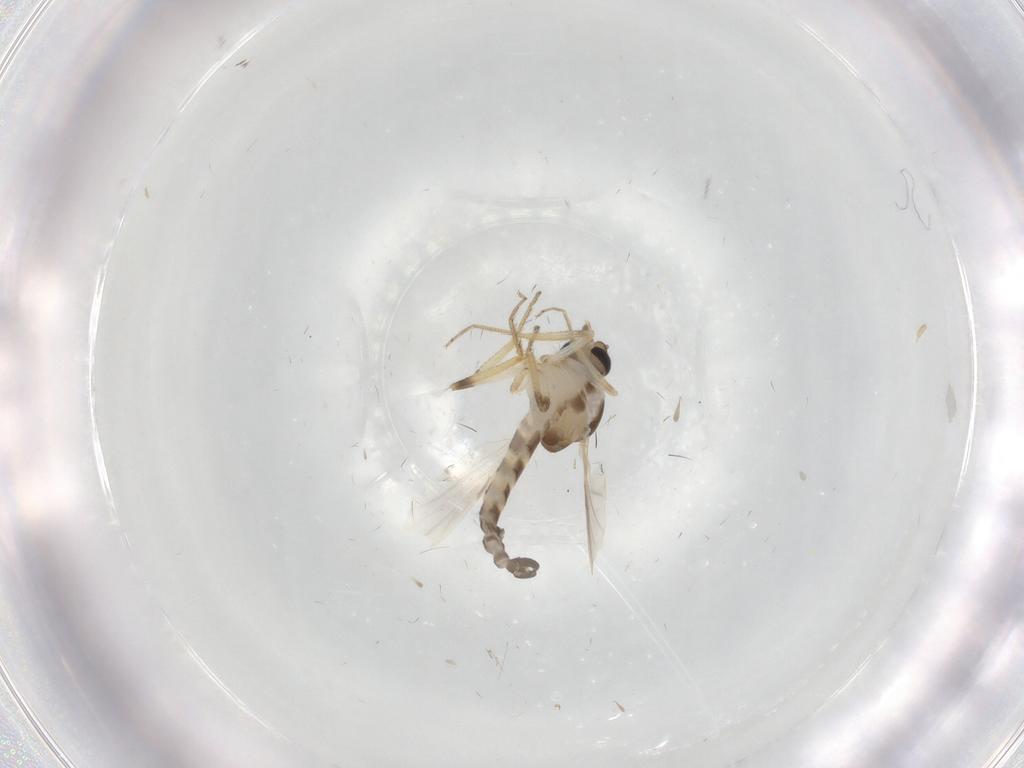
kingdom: Animalia
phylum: Arthropoda
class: Insecta
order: Diptera
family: Ceratopogonidae
